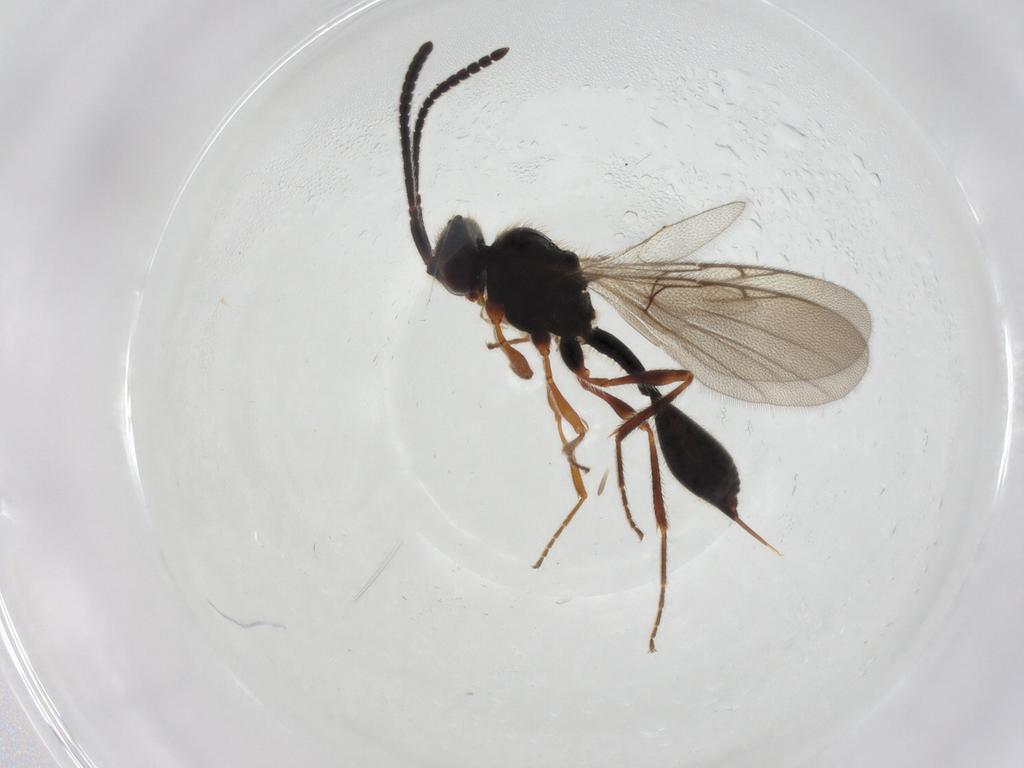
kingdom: Animalia
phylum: Arthropoda
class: Insecta
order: Hymenoptera
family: Diapriidae
